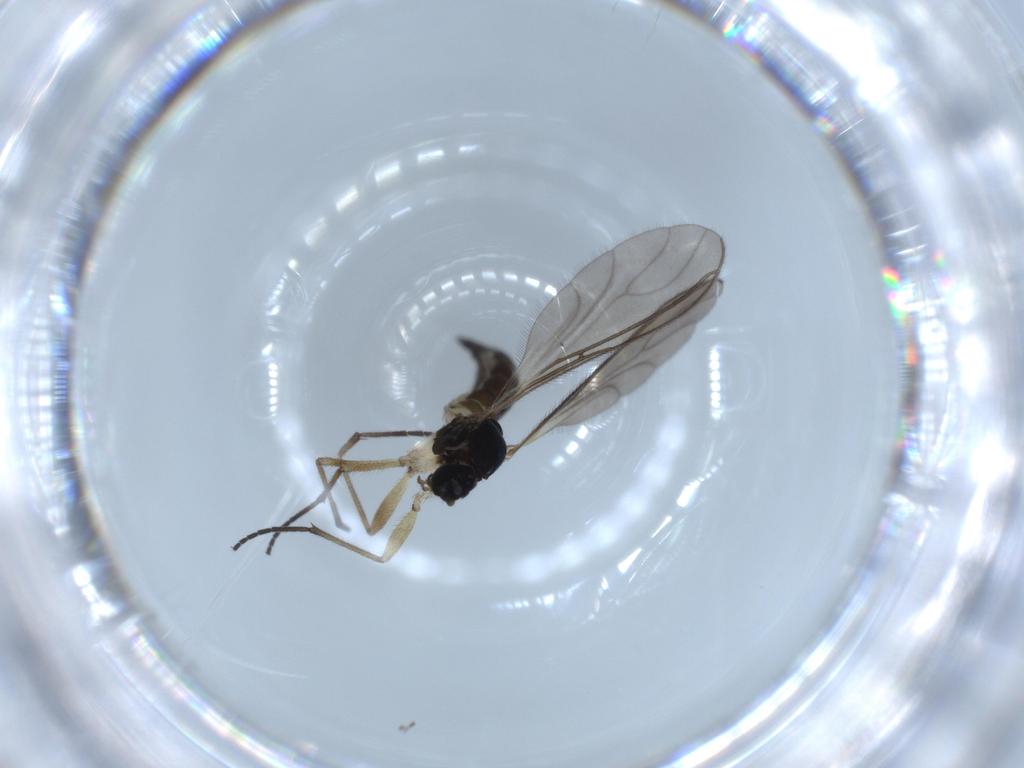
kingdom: Animalia
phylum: Arthropoda
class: Insecta
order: Diptera
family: Sciaridae
